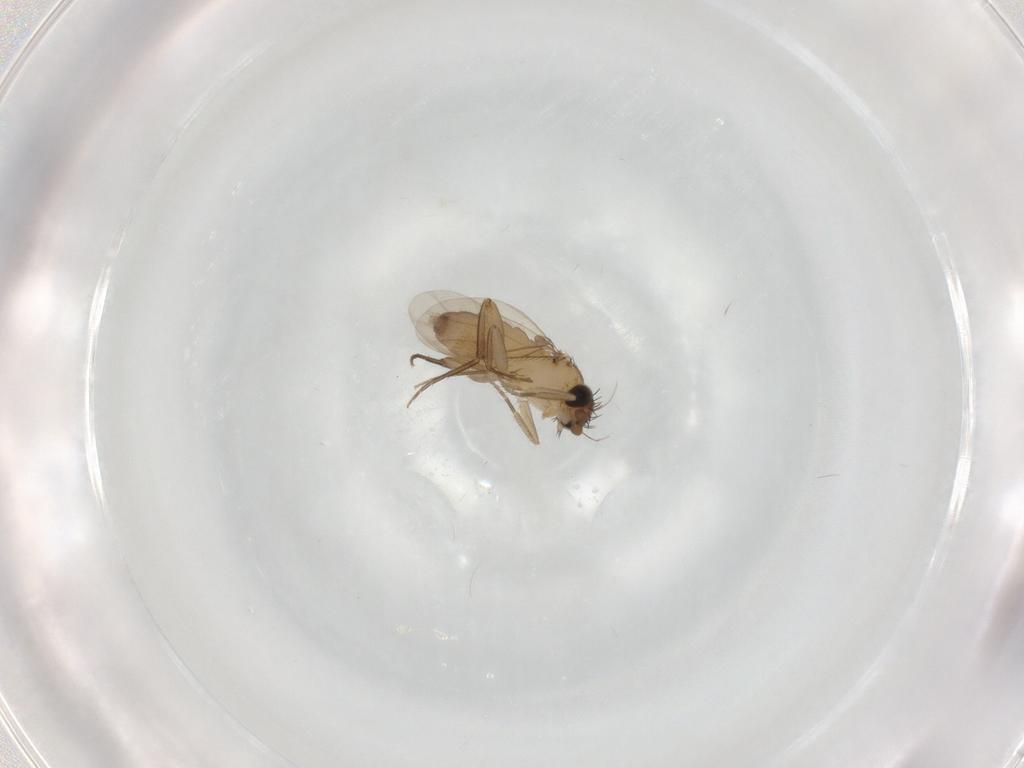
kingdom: Animalia
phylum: Arthropoda
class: Insecta
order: Diptera
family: Phoridae
